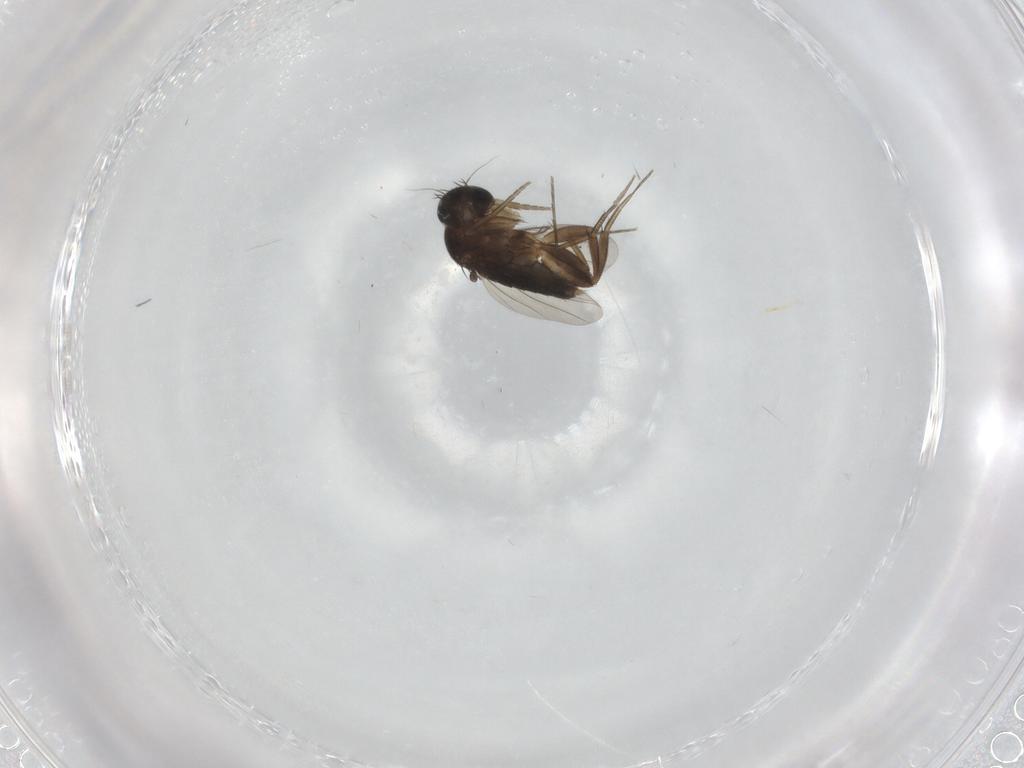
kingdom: Animalia
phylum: Arthropoda
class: Insecta
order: Diptera
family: Phoridae
